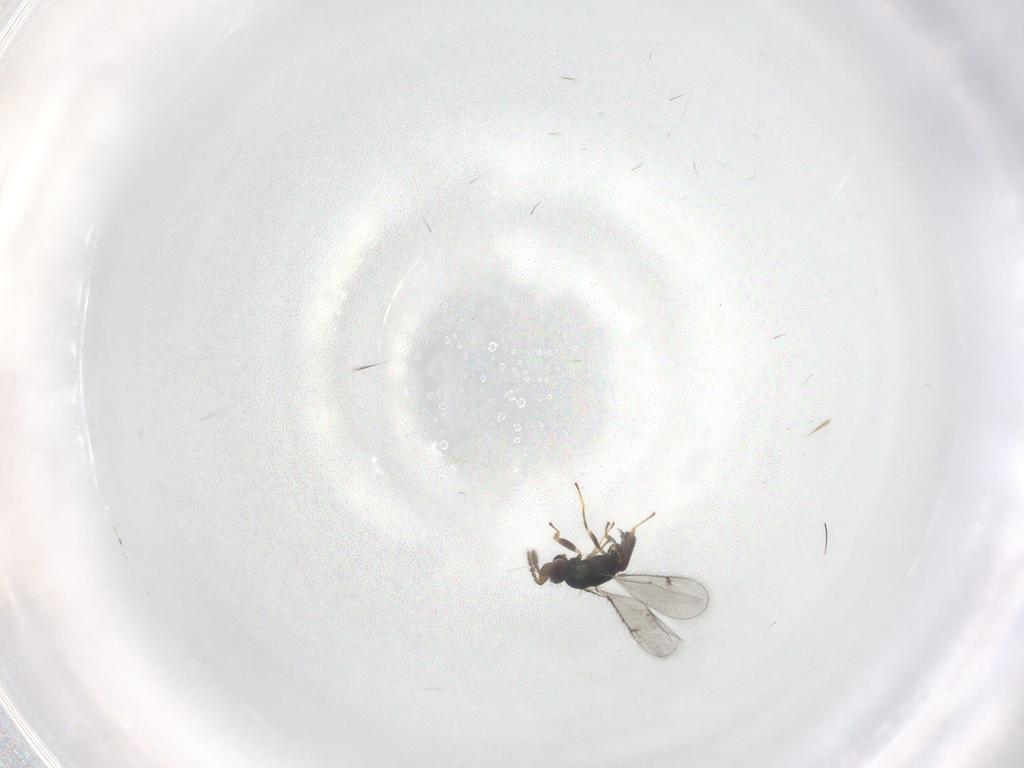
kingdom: Animalia
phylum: Arthropoda
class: Insecta
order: Hymenoptera
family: Eulophidae
